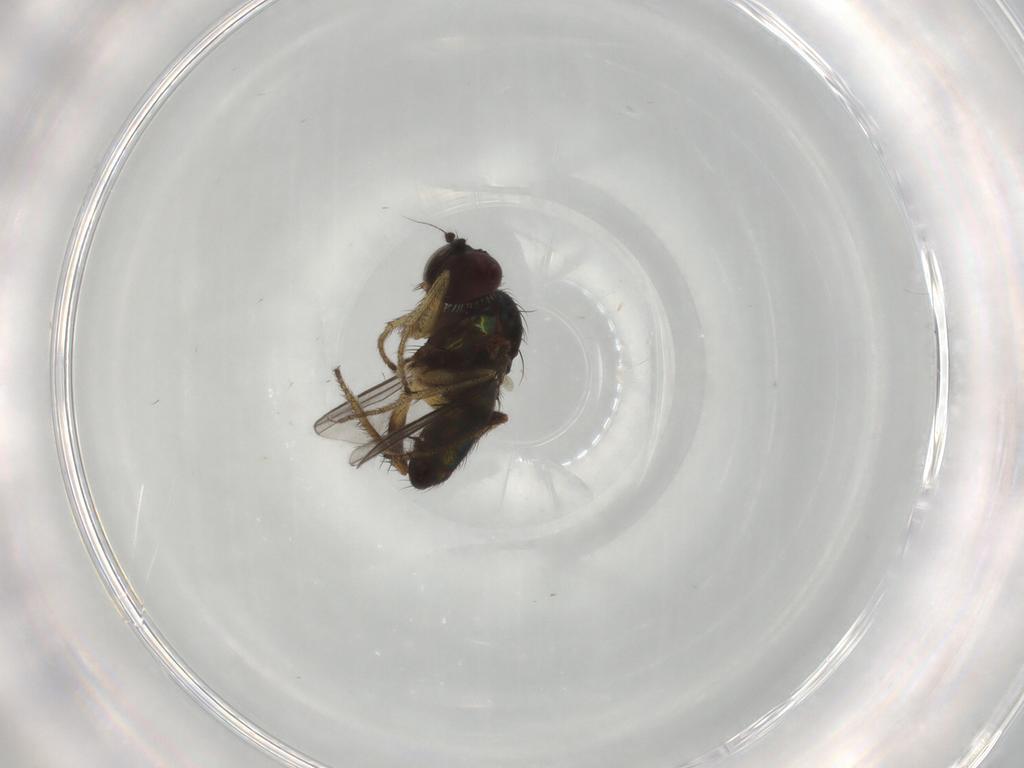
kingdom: Animalia
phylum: Arthropoda
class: Insecta
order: Diptera
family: Dolichopodidae
